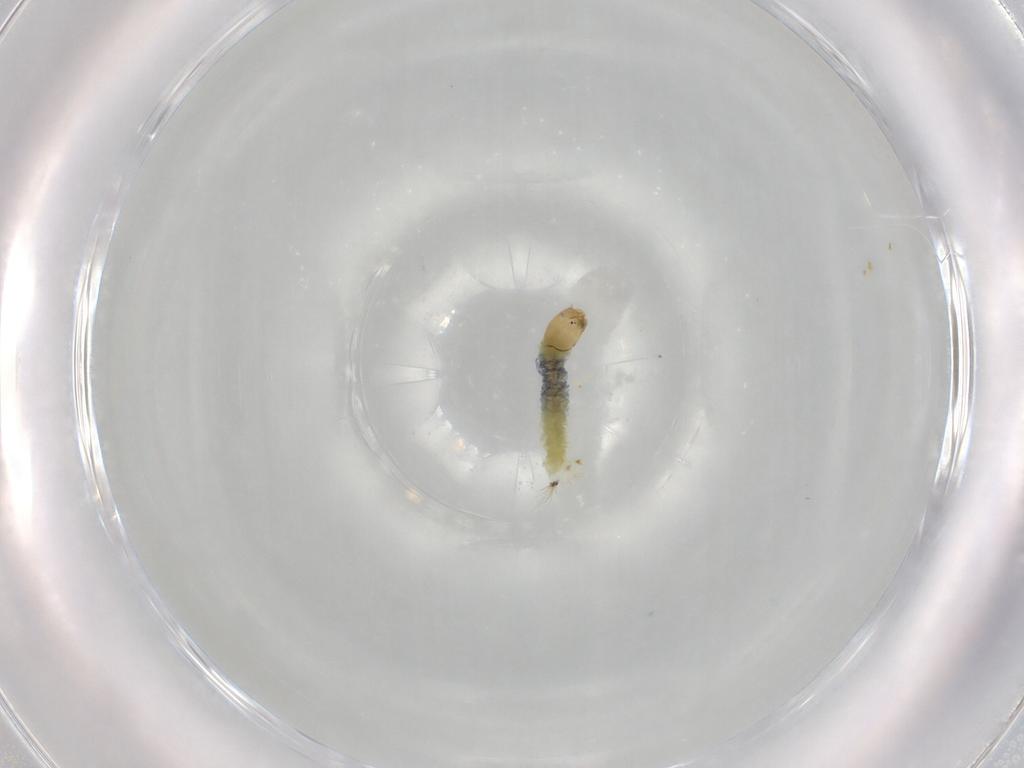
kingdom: Animalia
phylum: Arthropoda
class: Insecta
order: Diptera
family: Chironomidae
